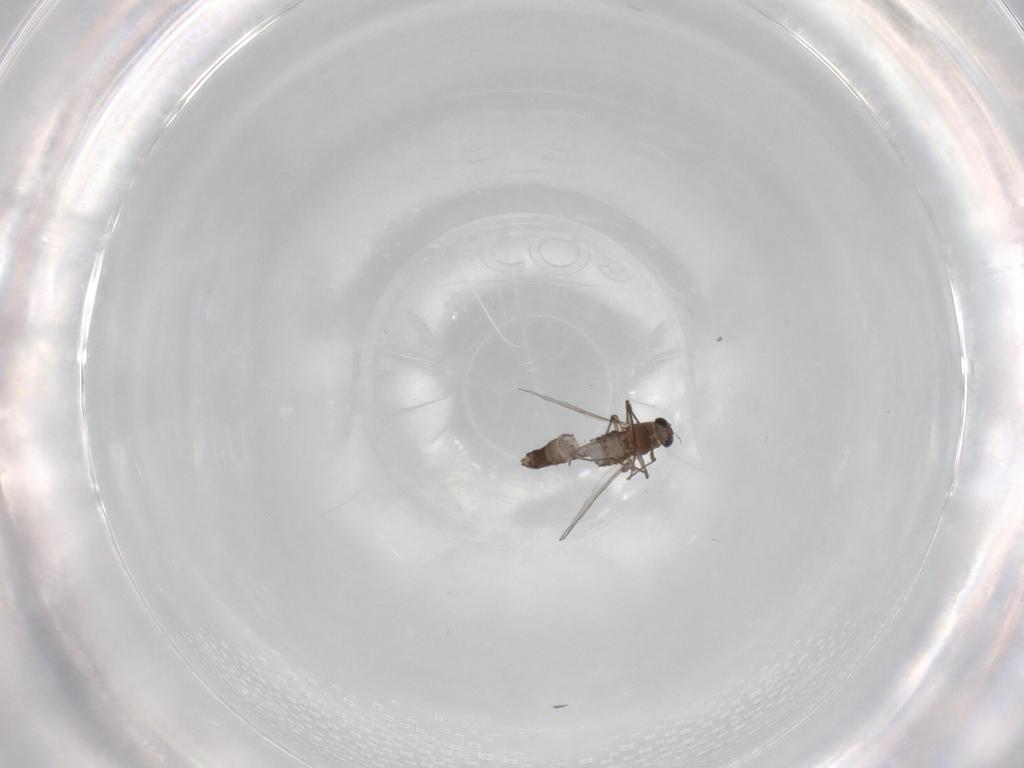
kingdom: Animalia
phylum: Arthropoda
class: Insecta
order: Diptera
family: Chironomidae
